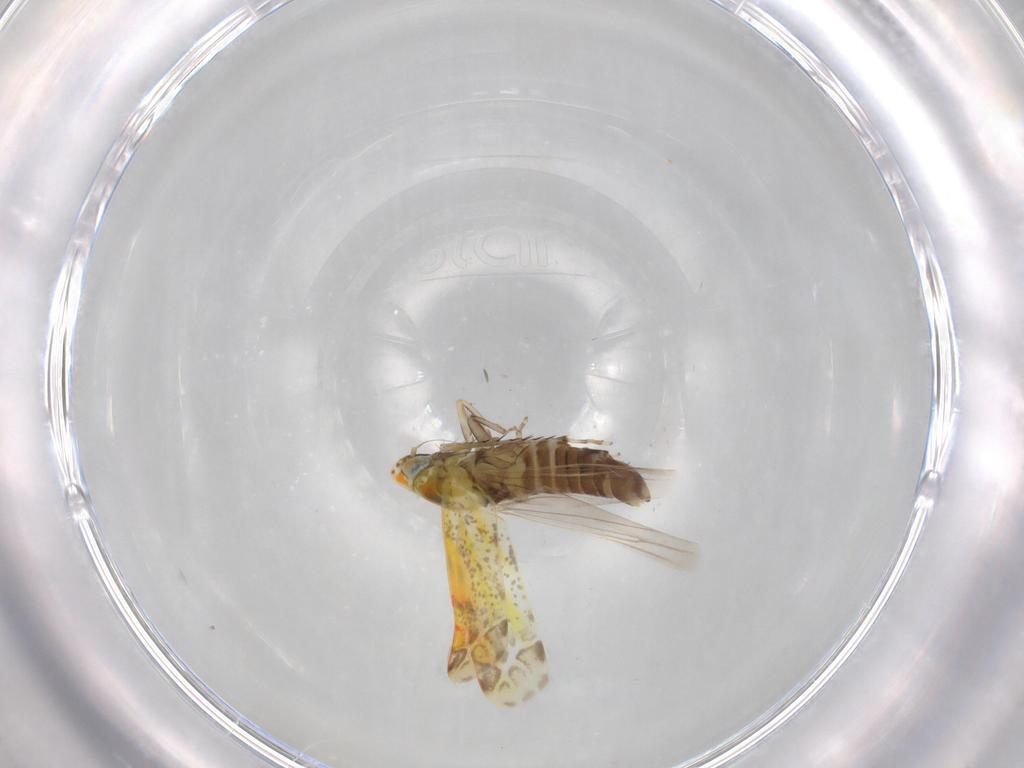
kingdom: Animalia
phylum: Arthropoda
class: Insecta
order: Hemiptera
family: Cicadellidae
